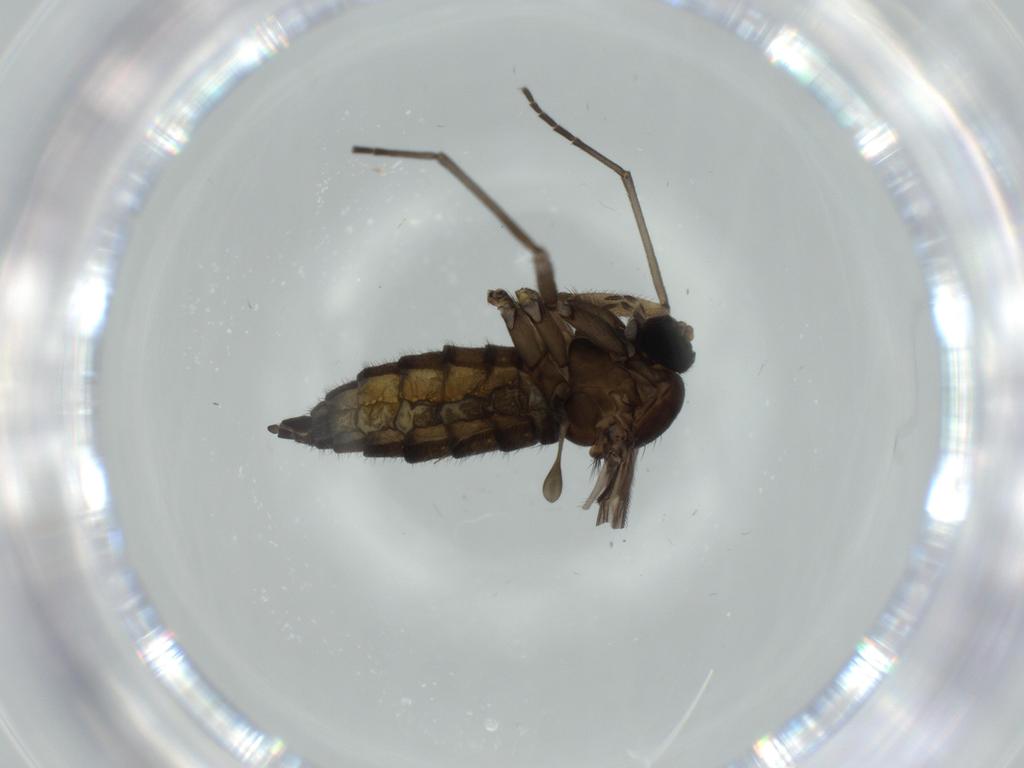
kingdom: Animalia
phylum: Arthropoda
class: Insecta
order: Diptera
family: Sciaridae
